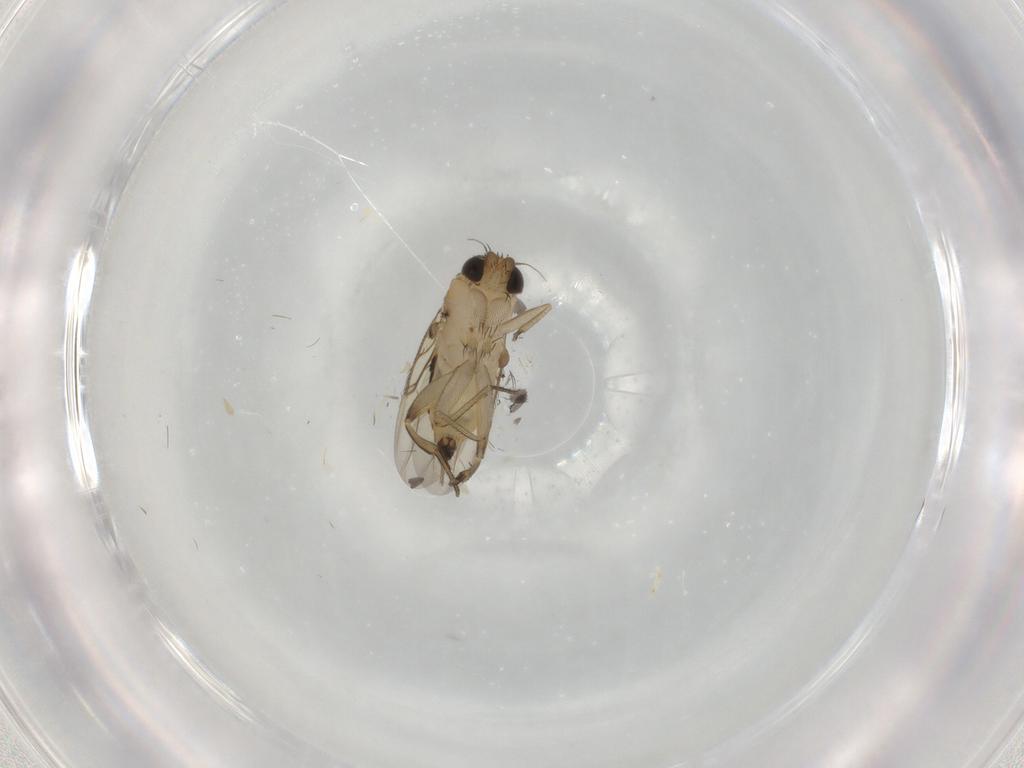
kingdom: Animalia
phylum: Arthropoda
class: Insecta
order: Diptera
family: Phoridae
